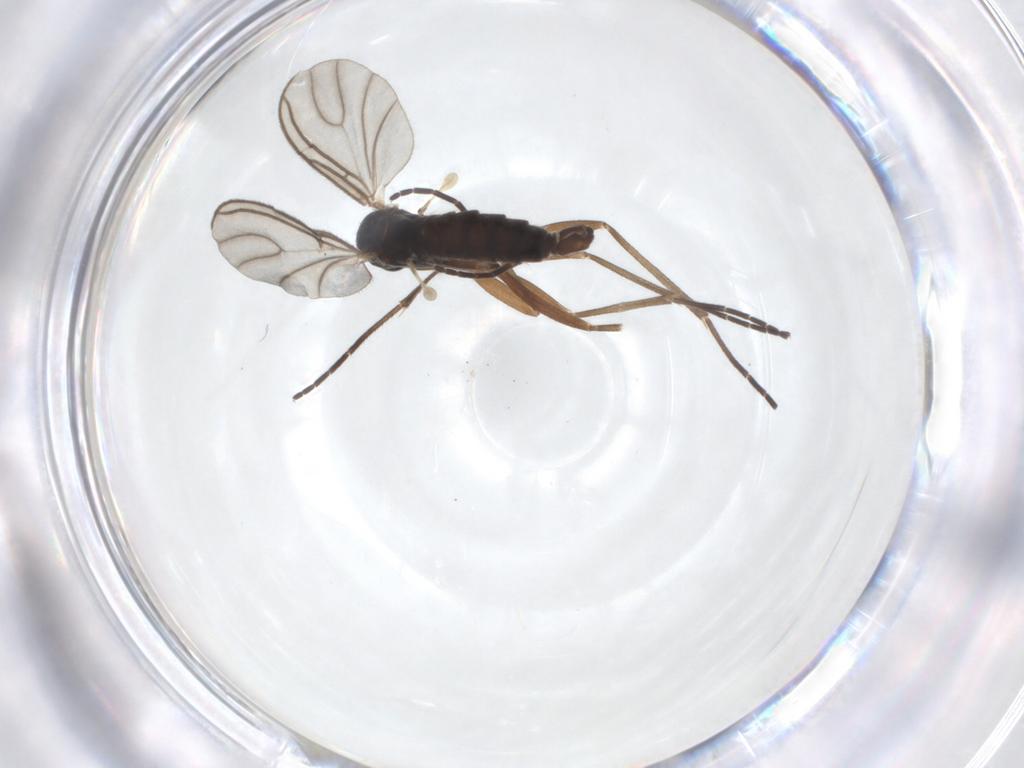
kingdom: Animalia
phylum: Arthropoda
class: Insecta
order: Diptera
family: Sciaridae
